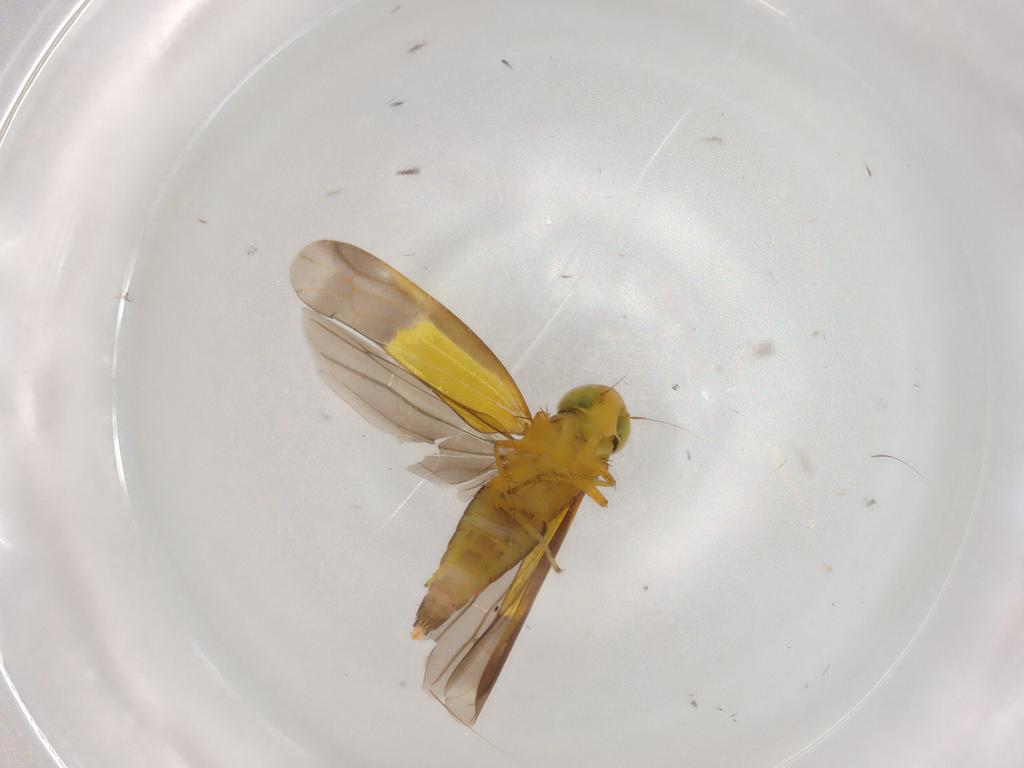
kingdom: Animalia
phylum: Arthropoda
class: Insecta
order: Hemiptera
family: Cicadellidae
